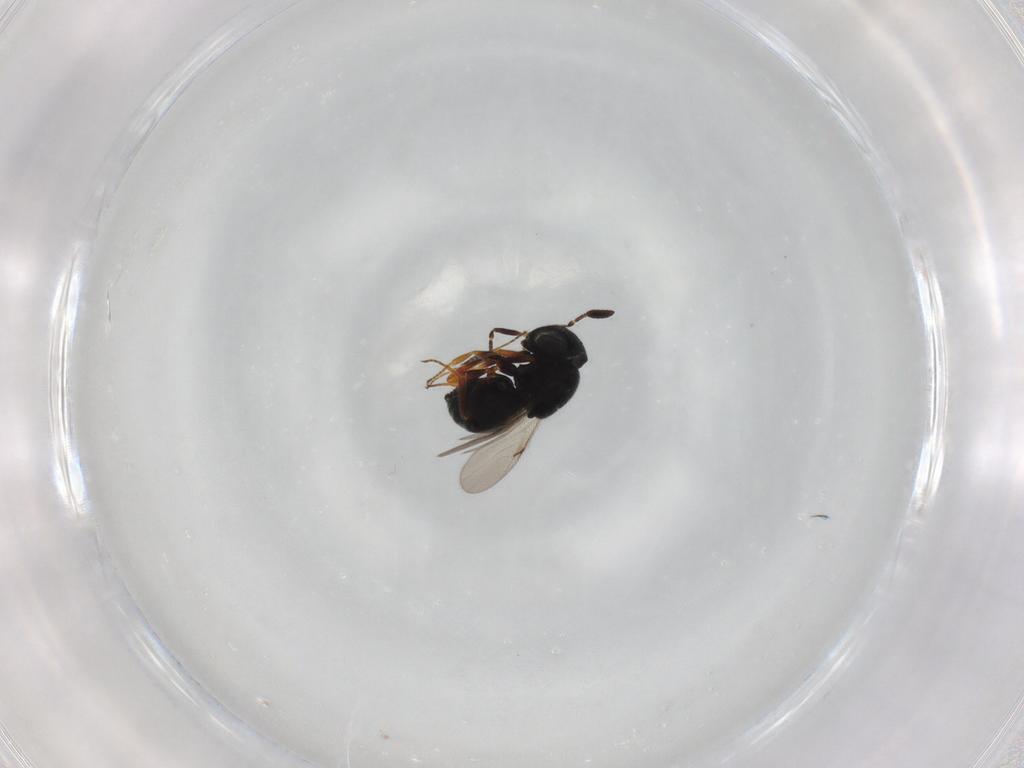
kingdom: Animalia
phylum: Arthropoda
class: Insecta
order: Hymenoptera
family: Scelionidae
